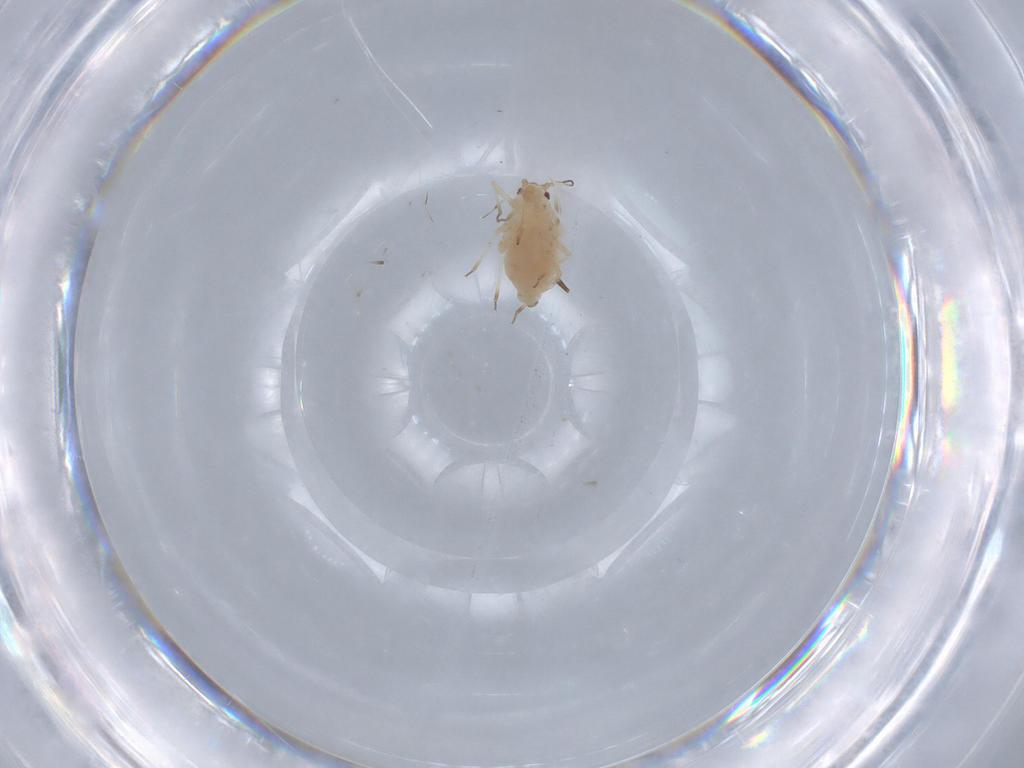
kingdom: Animalia
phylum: Arthropoda
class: Insecta
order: Hemiptera
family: Aphididae
